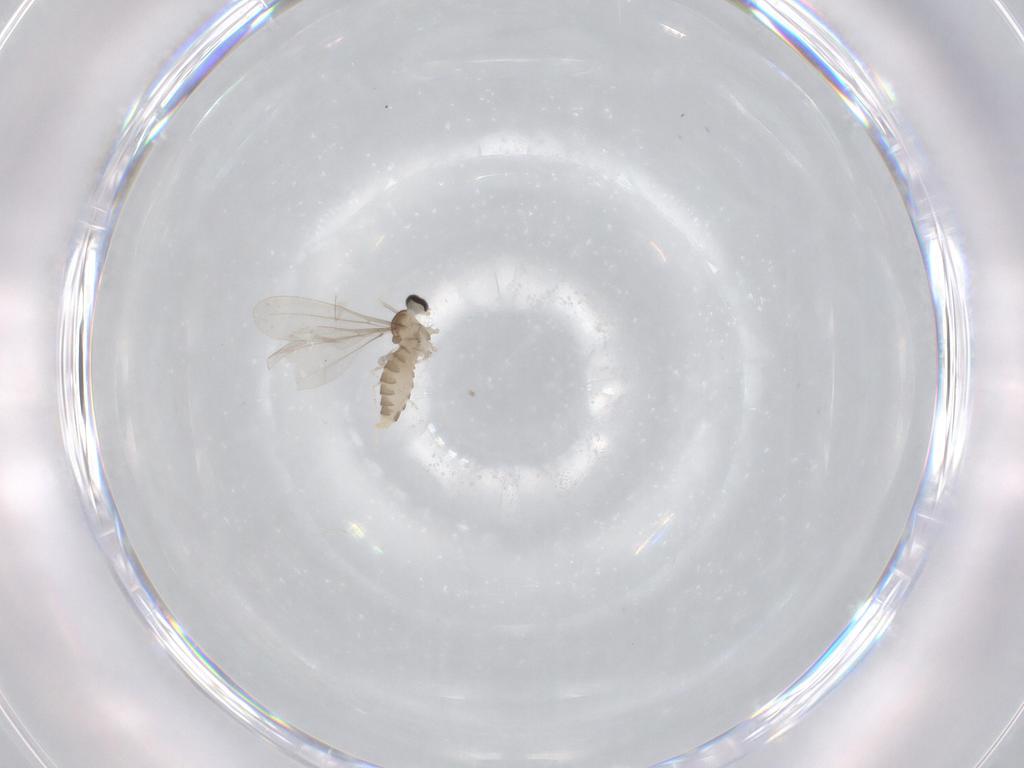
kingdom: Animalia
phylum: Arthropoda
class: Insecta
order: Diptera
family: Cecidomyiidae
